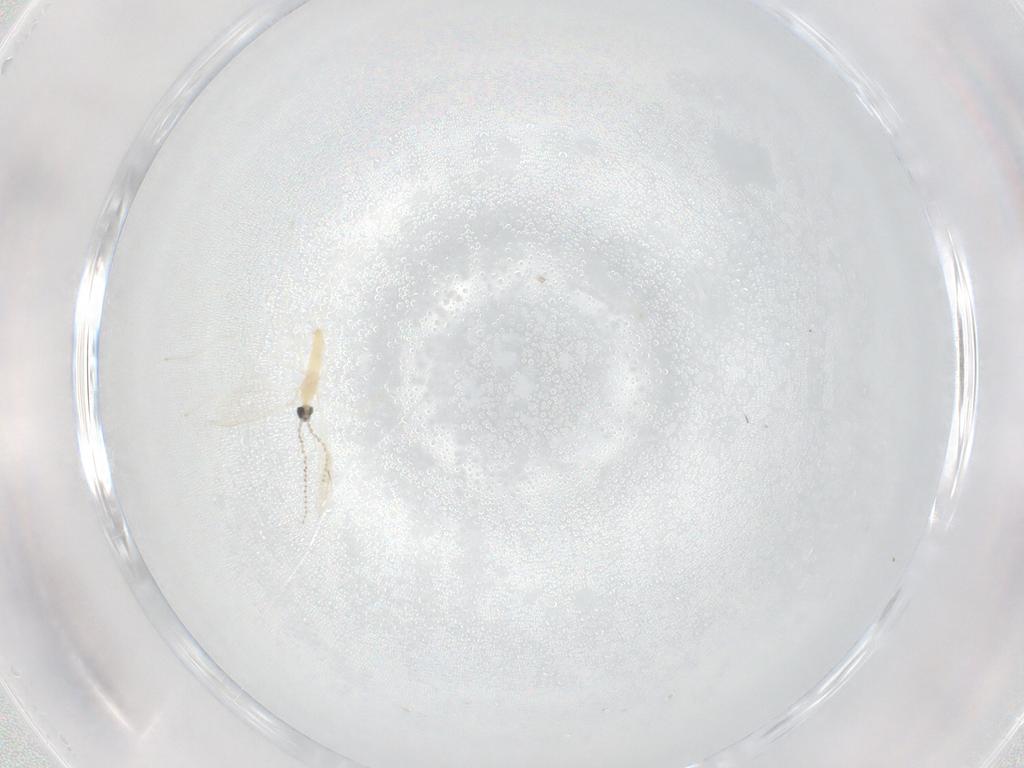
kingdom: Animalia
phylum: Arthropoda
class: Insecta
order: Diptera
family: Cecidomyiidae
